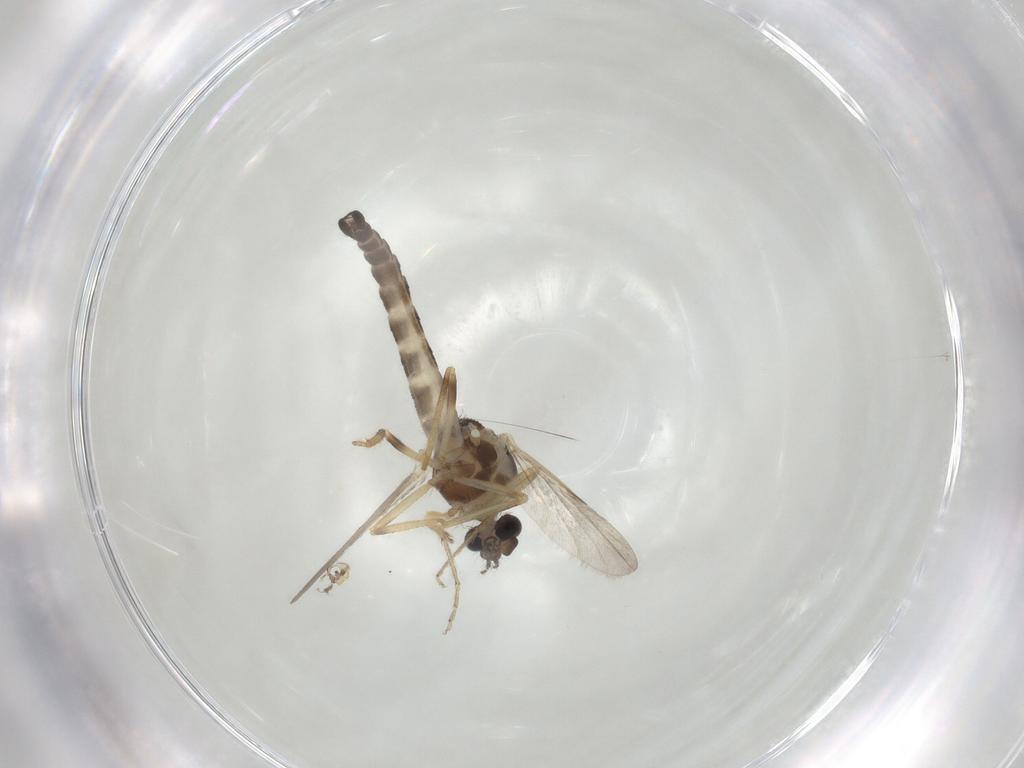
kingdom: Animalia
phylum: Arthropoda
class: Insecta
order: Diptera
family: Ceratopogonidae
